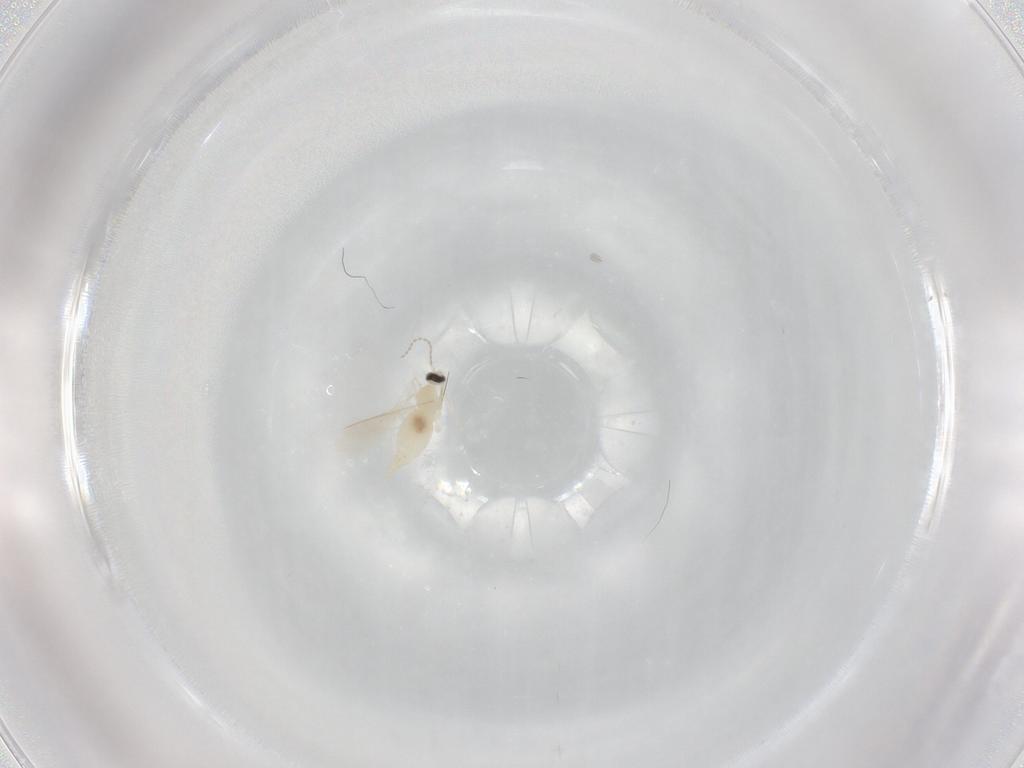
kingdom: Animalia
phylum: Arthropoda
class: Insecta
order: Diptera
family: Cecidomyiidae
